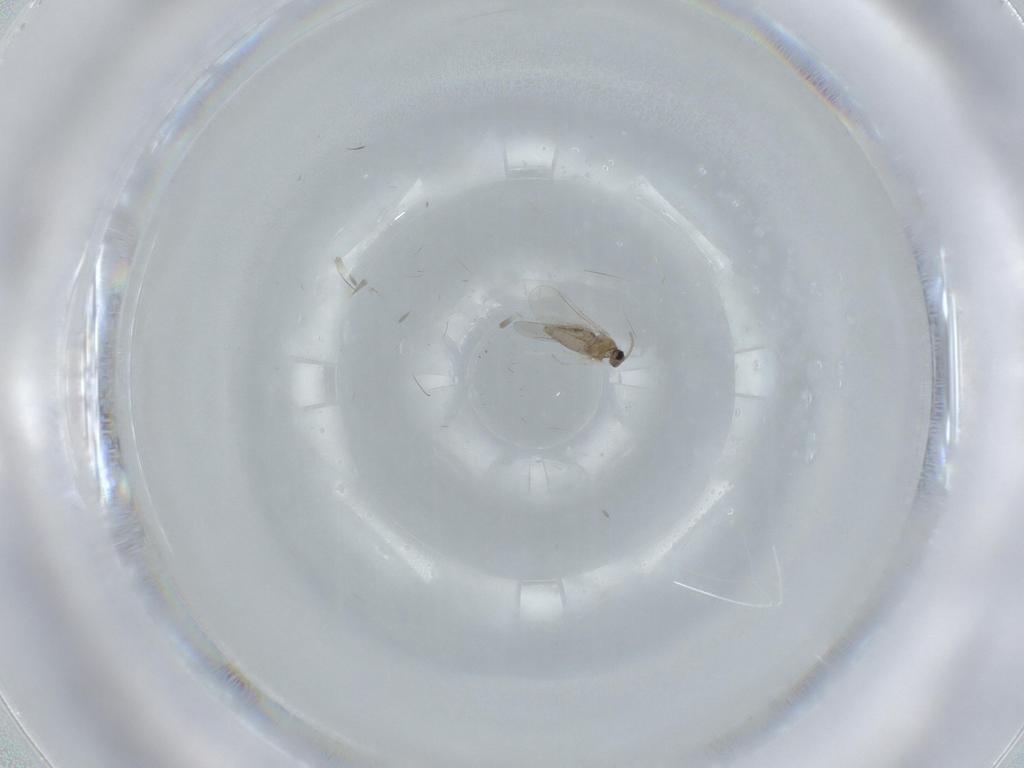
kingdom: Animalia
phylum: Arthropoda
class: Insecta
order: Diptera
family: Cecidomyiidae
